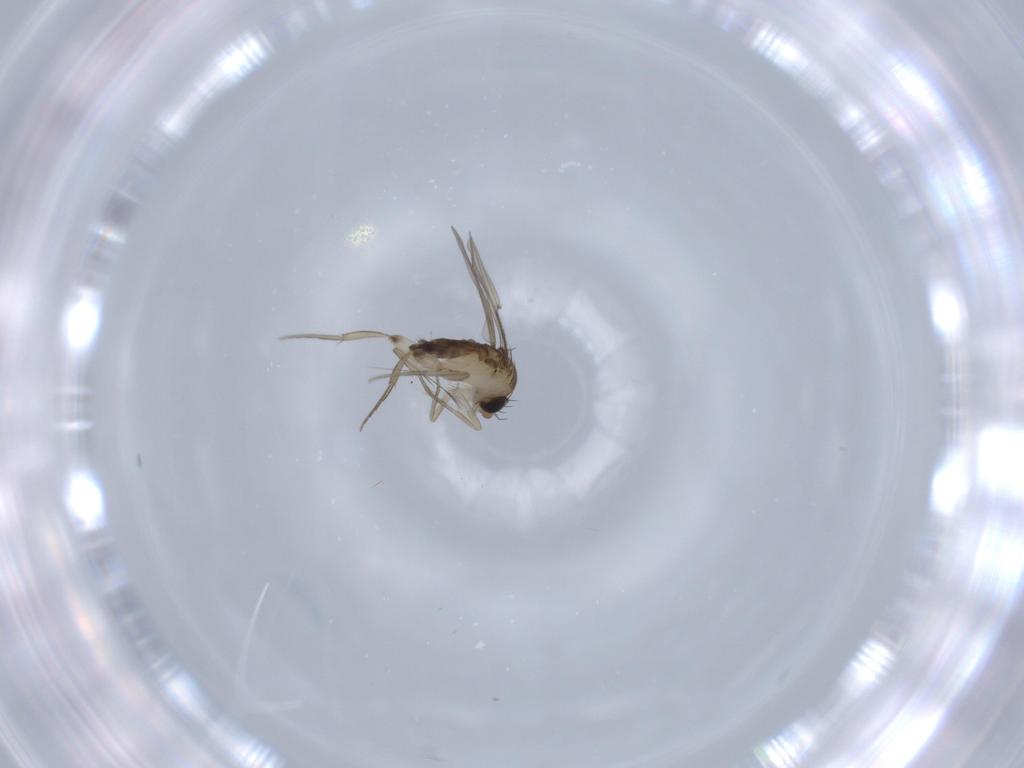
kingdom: Animalia
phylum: Arthropoda
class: Insecta
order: Diptera
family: Phoridae
